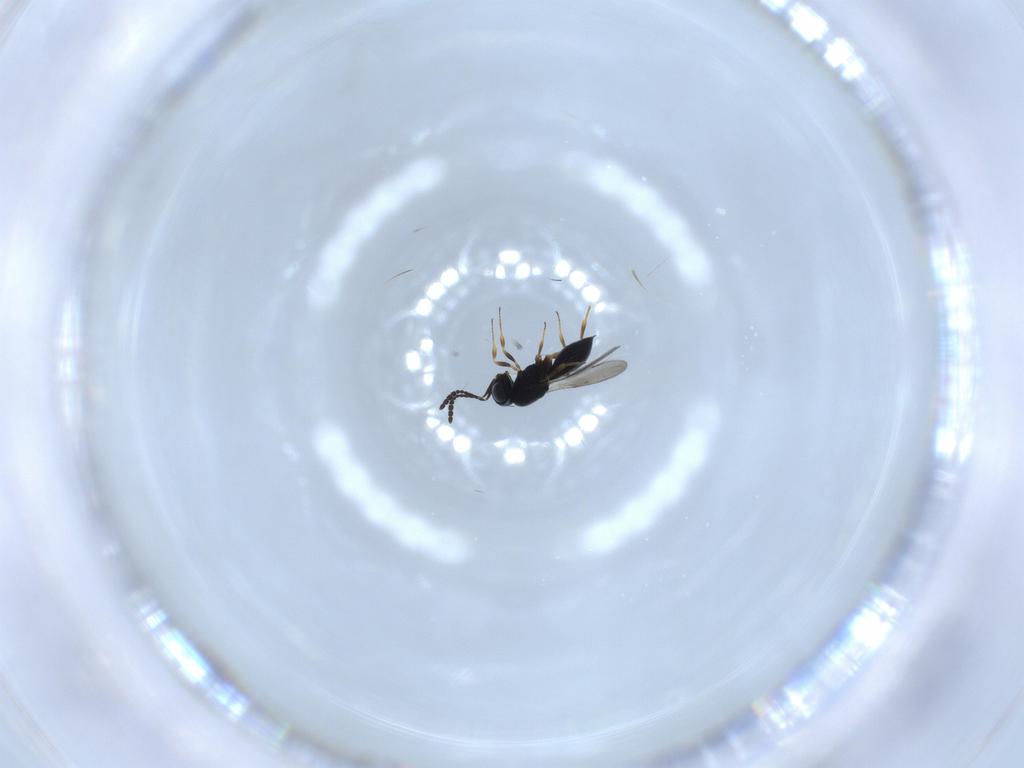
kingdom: Animalia
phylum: Arthropoda
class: Insecta
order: Hymenoptera
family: Scelionidae
